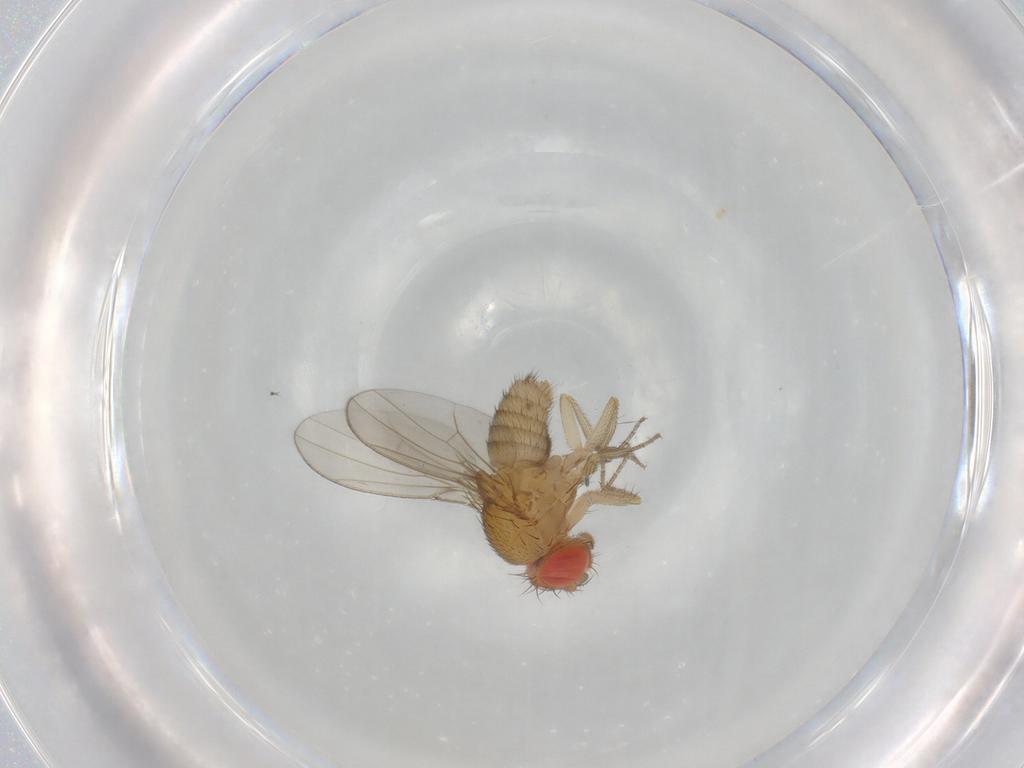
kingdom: Animalia
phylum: Arthropoda
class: Insecta
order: Diptera
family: Drosophilidae
